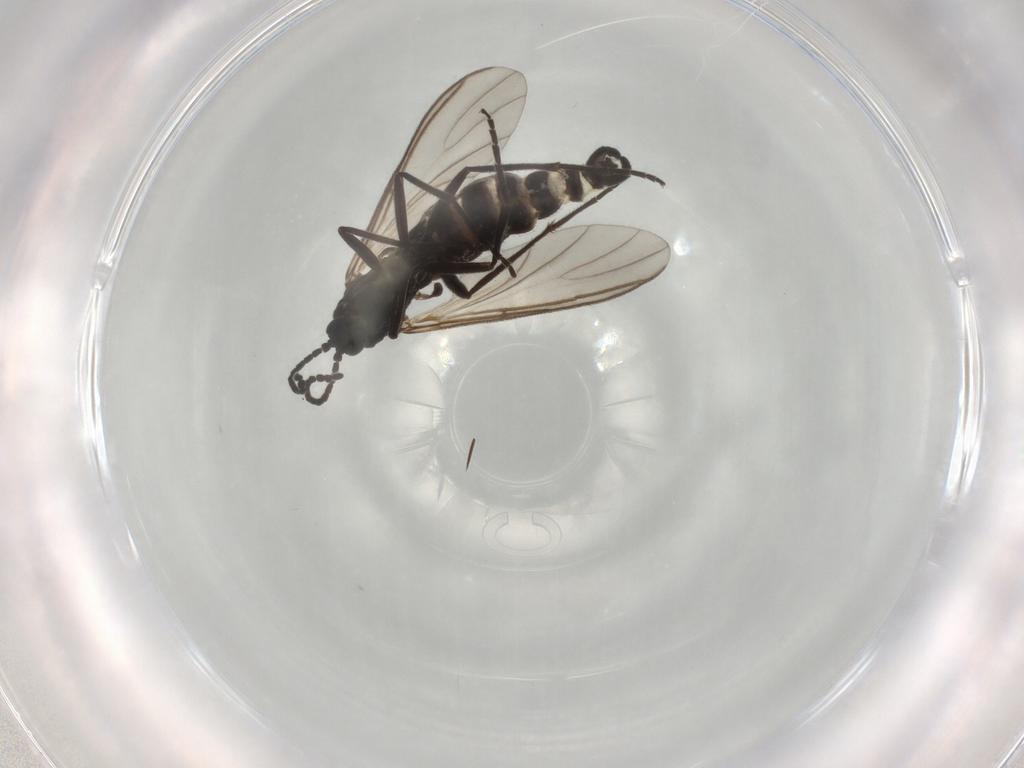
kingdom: Animalia
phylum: Arthropoda
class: Insecta
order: Diptera
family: Sciaridae
